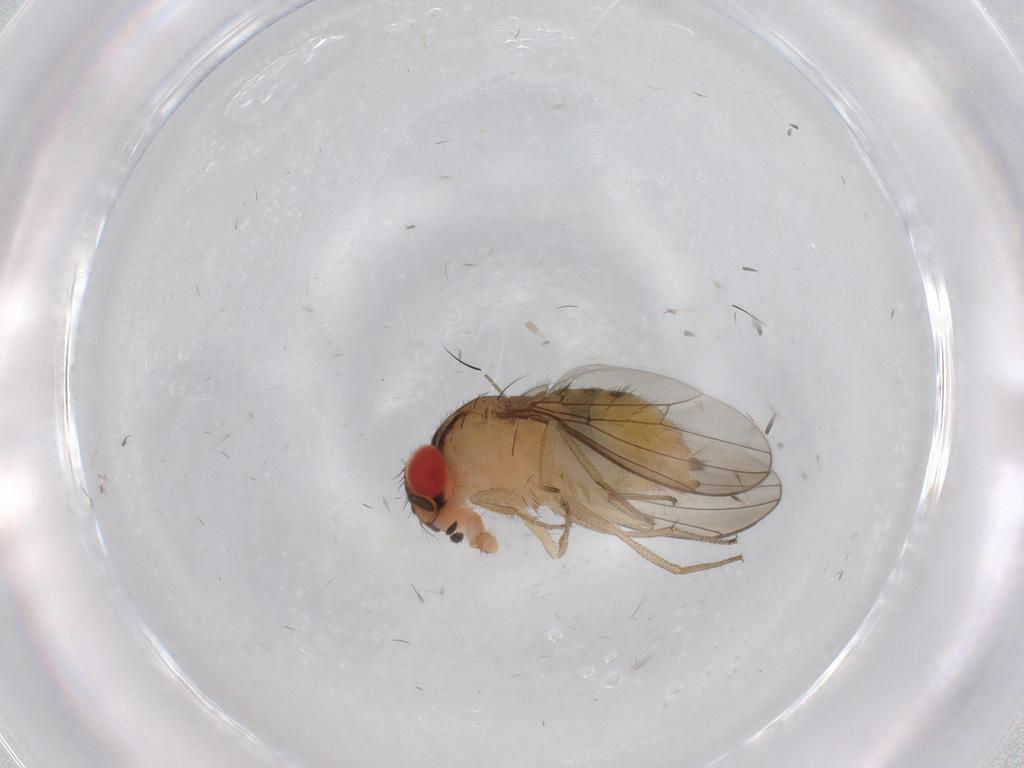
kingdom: Animalia
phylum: Arthropoda
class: Insecta
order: Diptera
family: Drosophilidae
